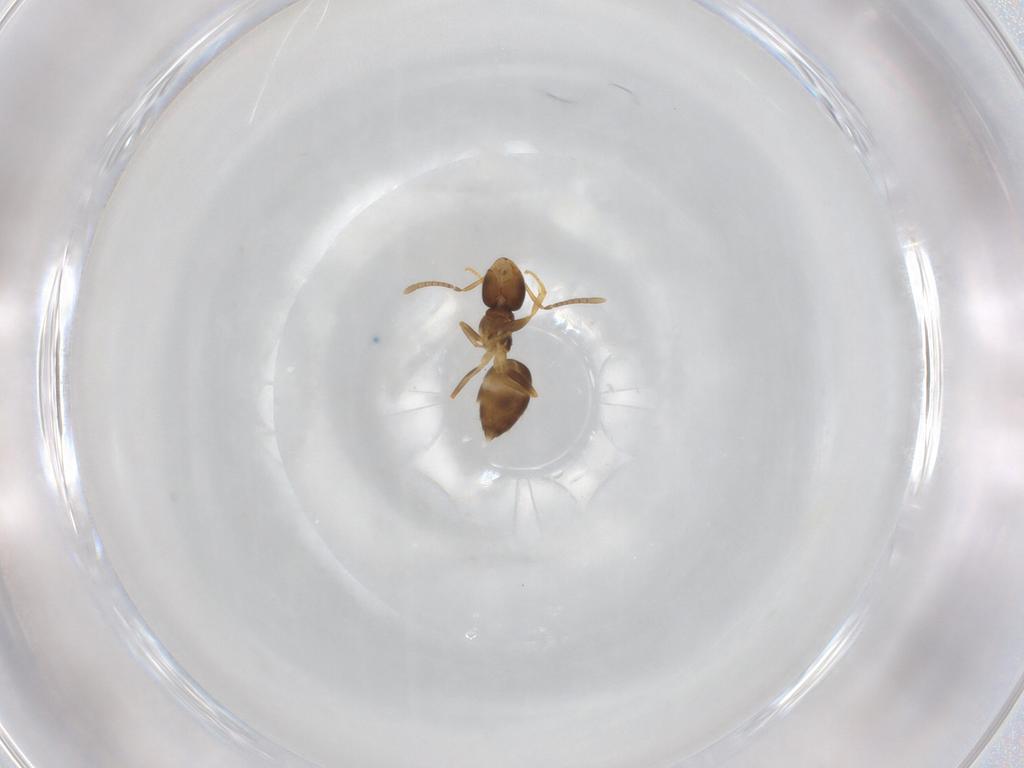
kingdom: Animalia
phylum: Arthropoda
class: Insecta
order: Hymenoptera
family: Formicidae
